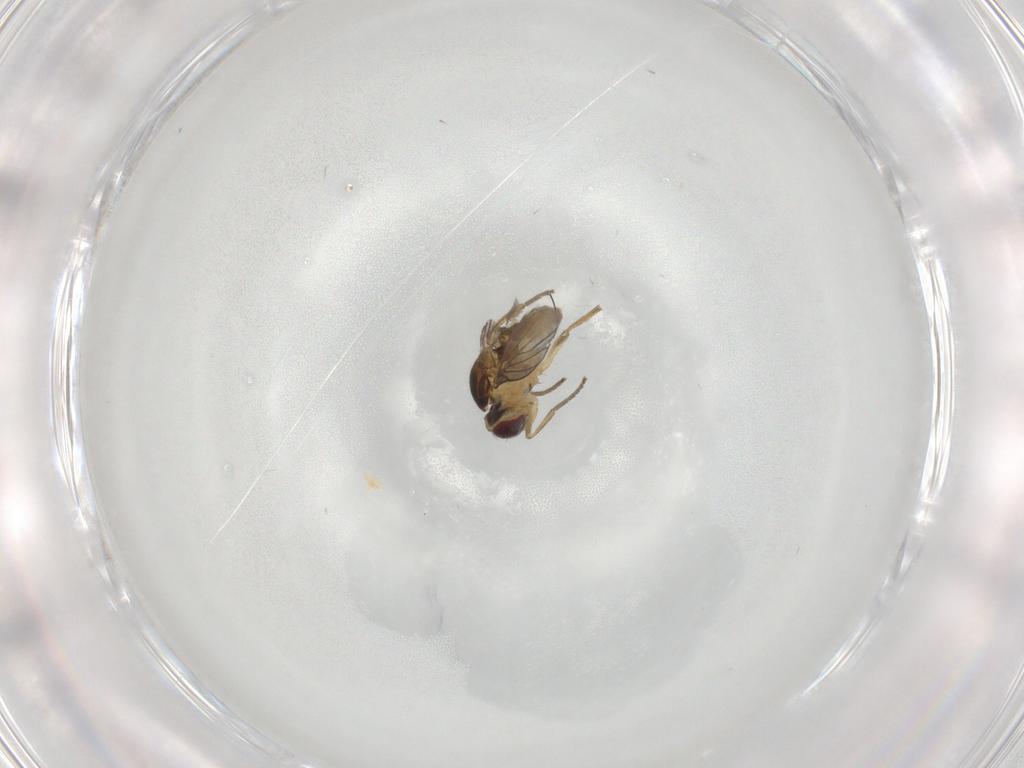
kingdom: Animalia
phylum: Arthropoda
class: Insecta
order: Diptera
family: Agromyzidae
